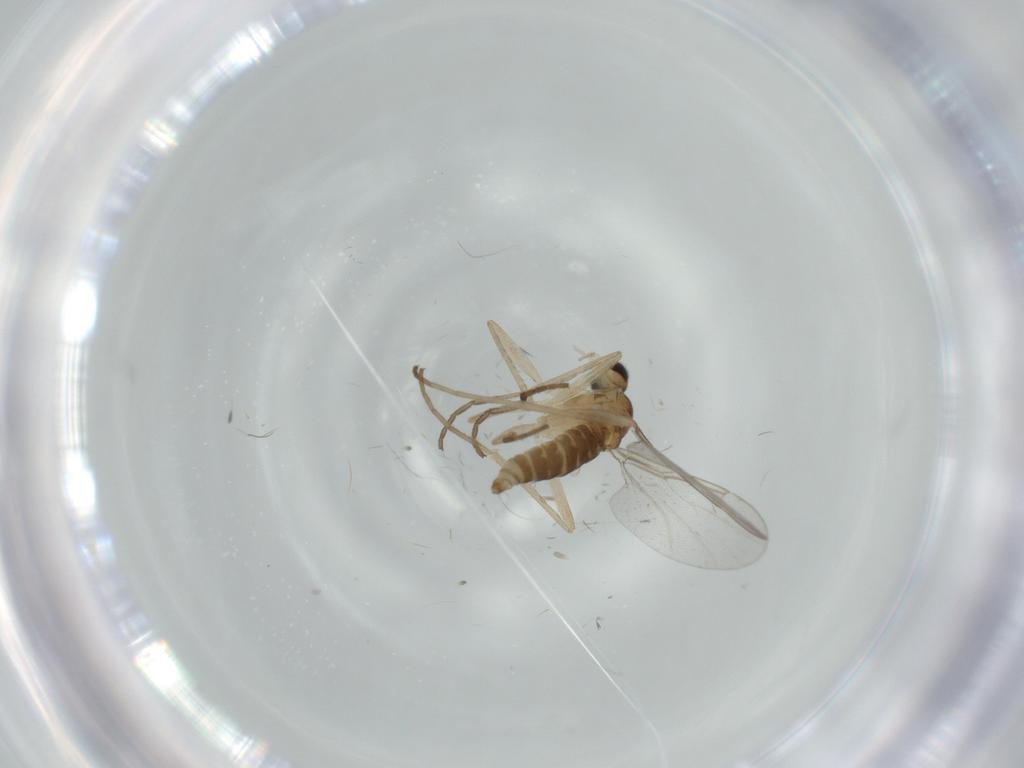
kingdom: Animalia
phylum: Arthropoda
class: Insecta
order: Diptera
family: Cecidomyiidae
